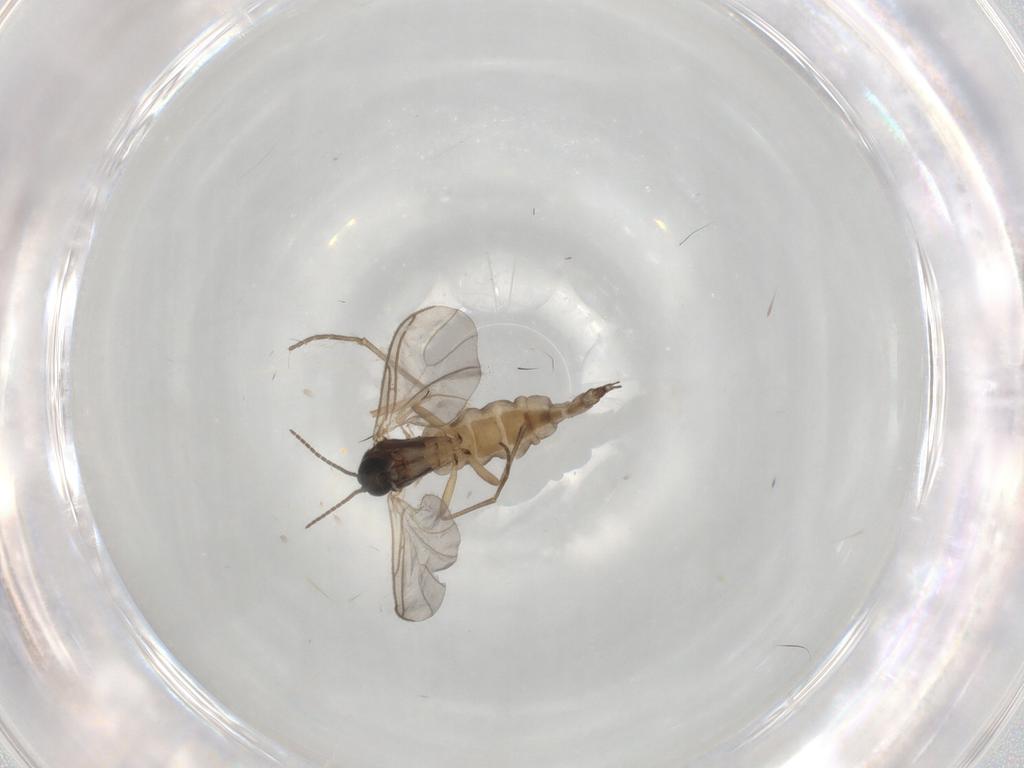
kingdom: Animalia
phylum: Arthropoda
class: Insecta
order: Diptera
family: Sciaridae
